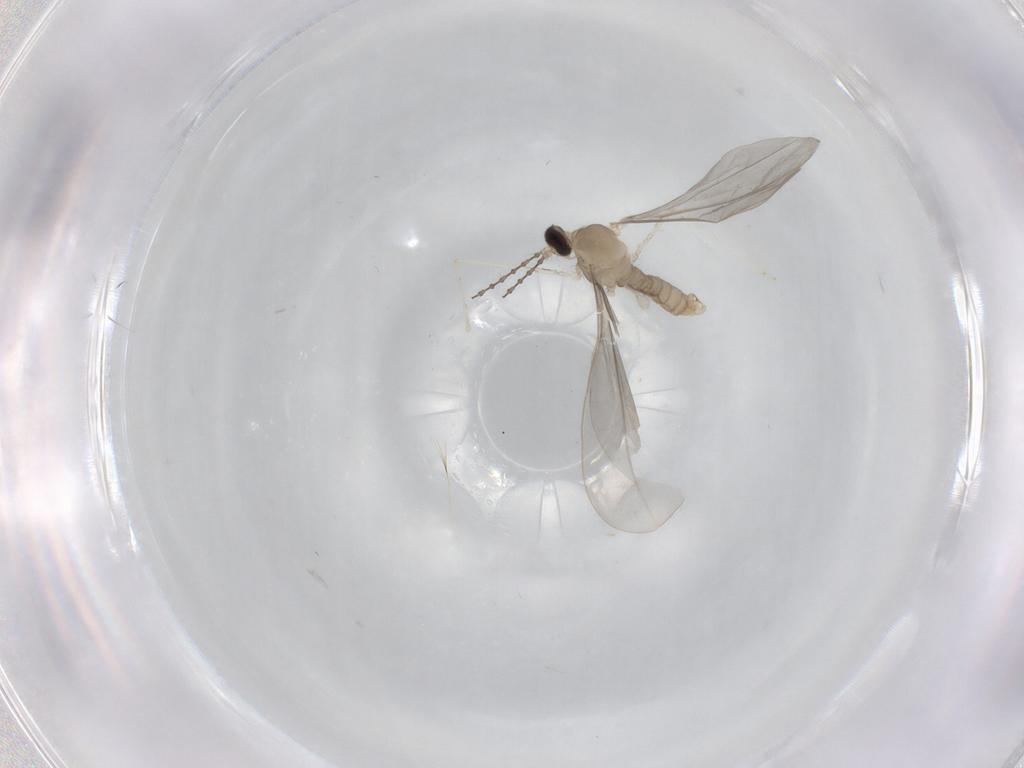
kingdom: Animalia
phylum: Arthropoda
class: Insecta
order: Diptera
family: Cecidomyiidae
